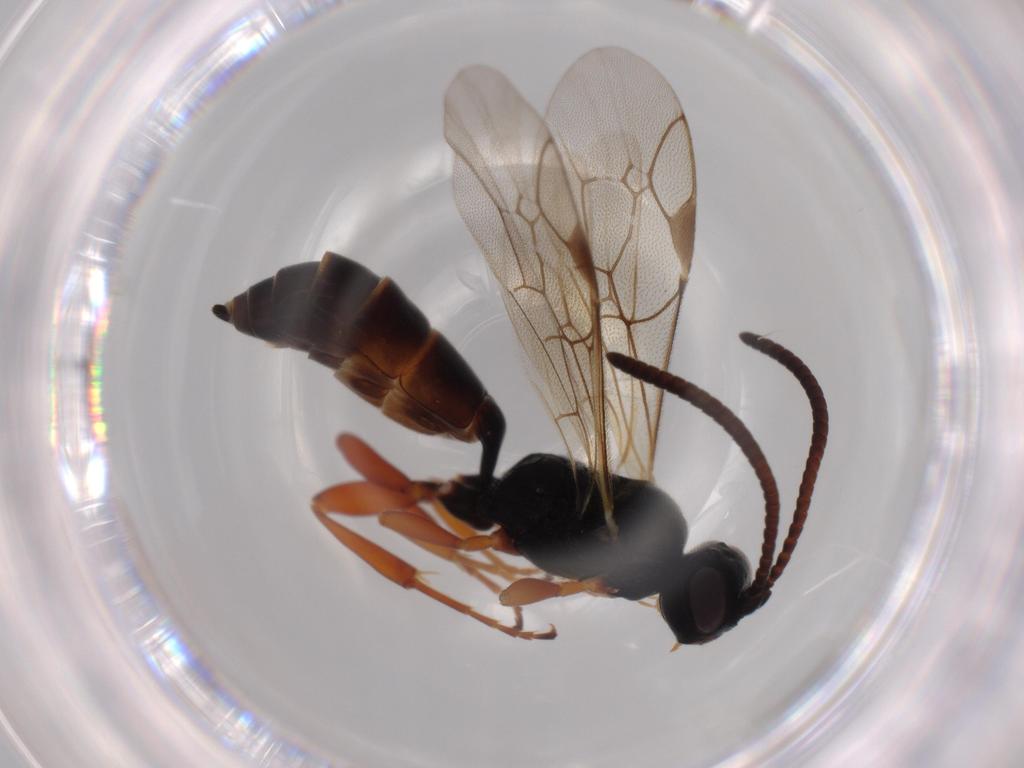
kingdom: Animalia
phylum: Arthropoda
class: Insecta
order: Hymenoptera
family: Ichneumonidae
